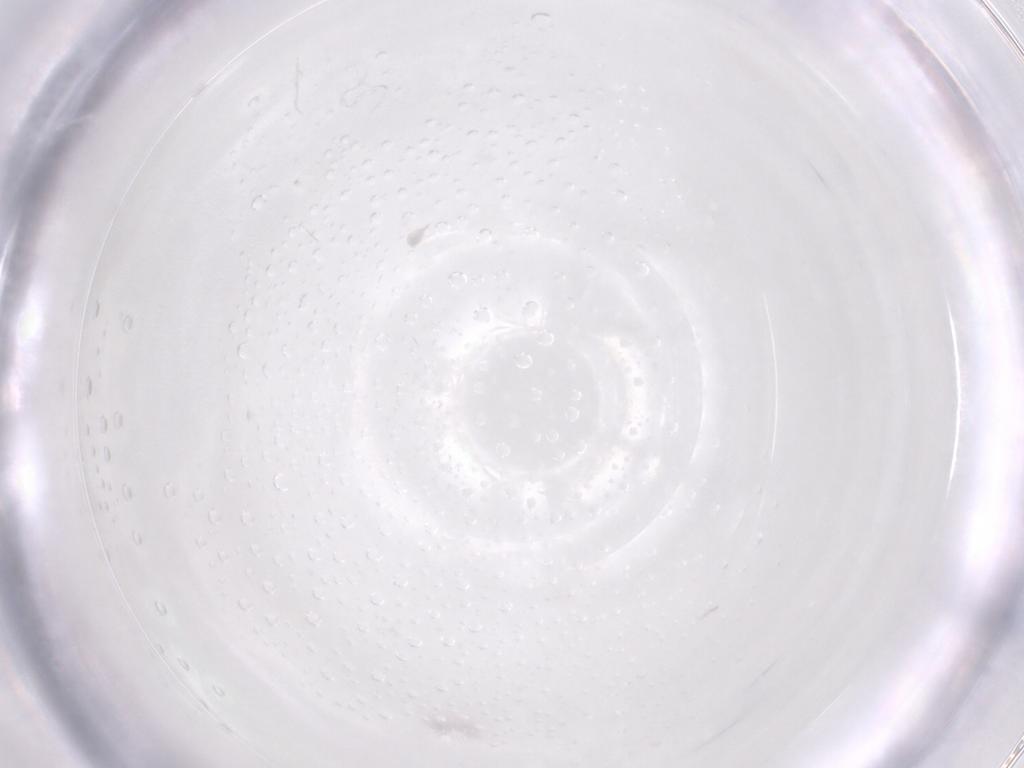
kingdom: Animalia
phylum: Arthropoda
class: Arachnida
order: Trombidiformes
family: Eupodidae
